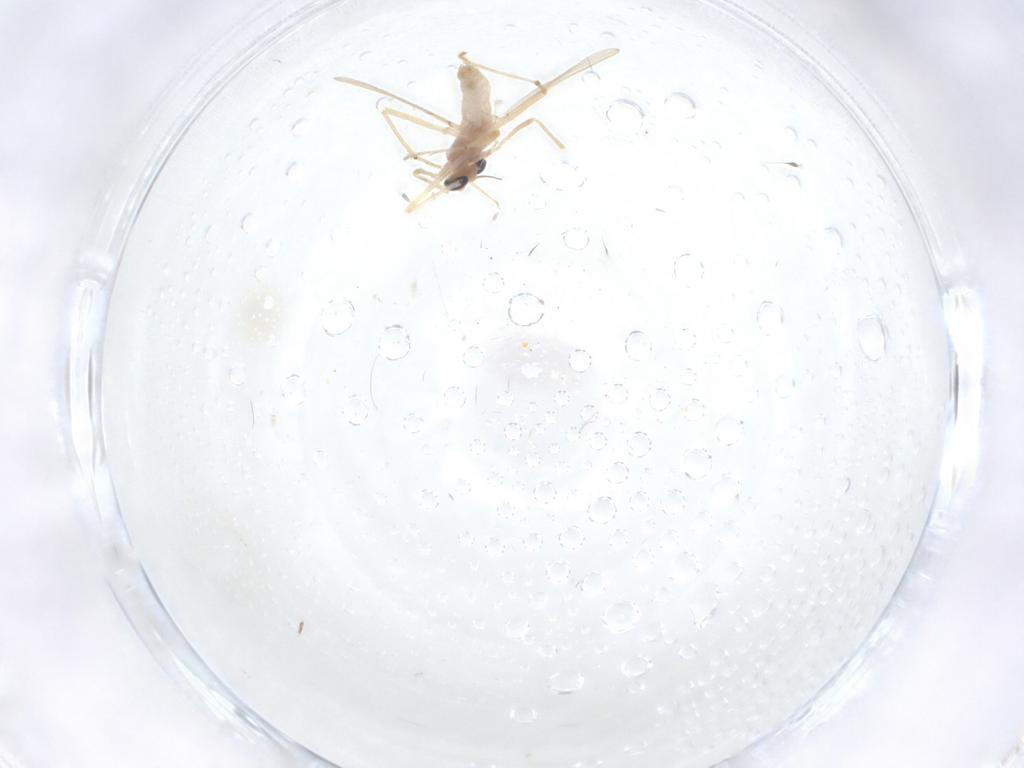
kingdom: Animalia
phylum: Arthropoda
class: Insecta
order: Diptera
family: Chironomidae
